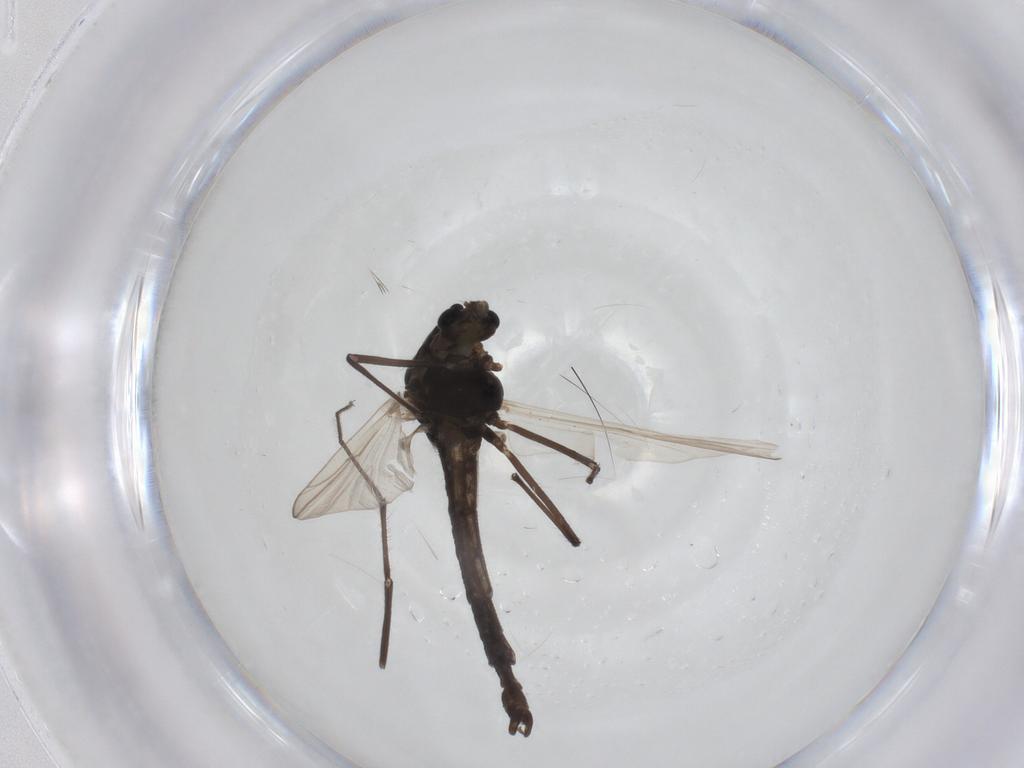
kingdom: Animalia
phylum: Arthropoda
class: Insecta
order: Diptera
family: Chironomidae
